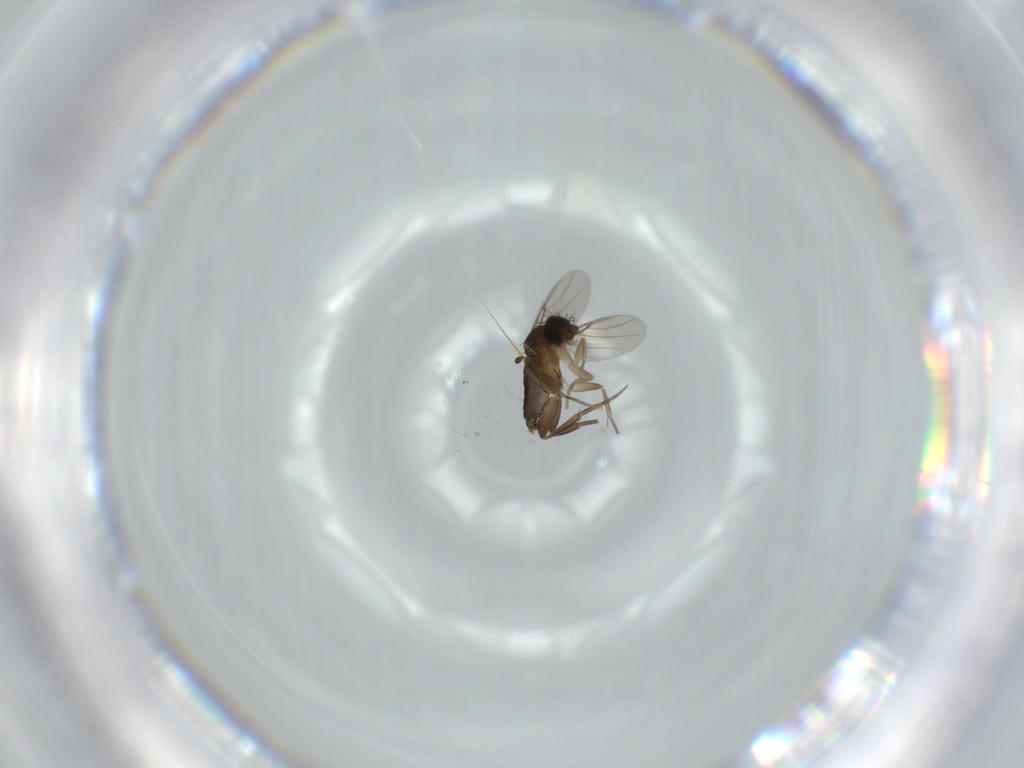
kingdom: Animalia
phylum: Arthropoda
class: Insecta
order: Diptera
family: Phoridae
